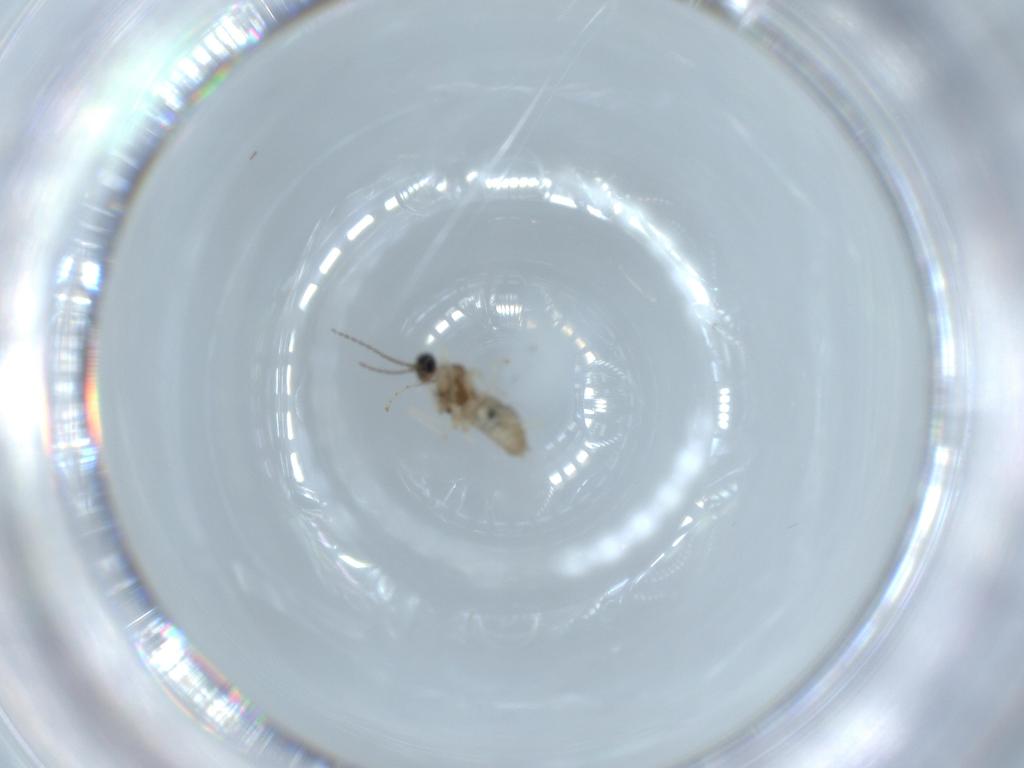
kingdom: Animalia
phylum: Arthropoda
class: Insecta
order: Diptera
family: Cecidomyiidae
